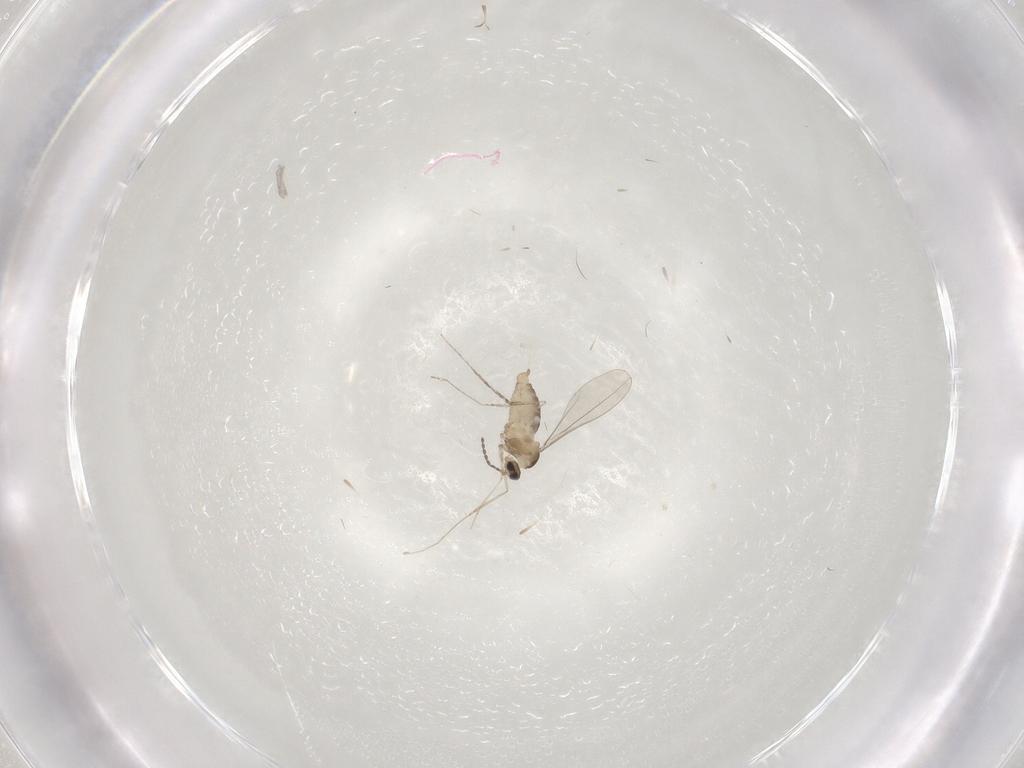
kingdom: Animalia
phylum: Arthropoda
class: Insecta
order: Diptera
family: Cecidomyiidae
